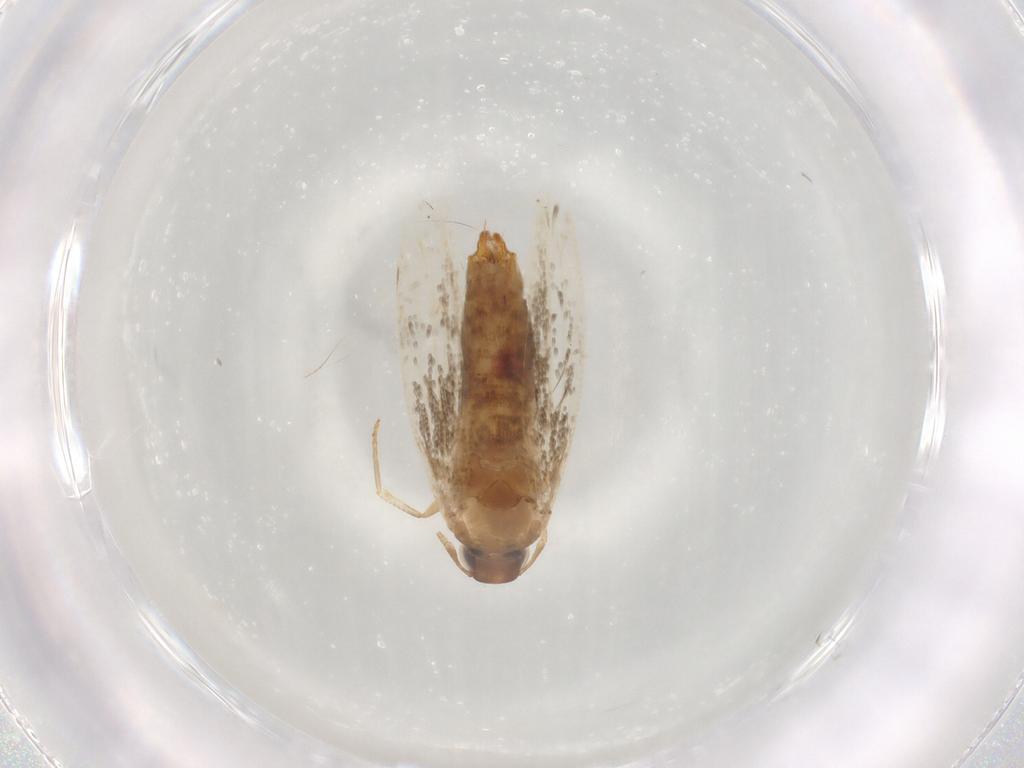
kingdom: Animalia
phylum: Arthropoda
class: Insecta
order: Lepidoptera
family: Cosmopterigidae
